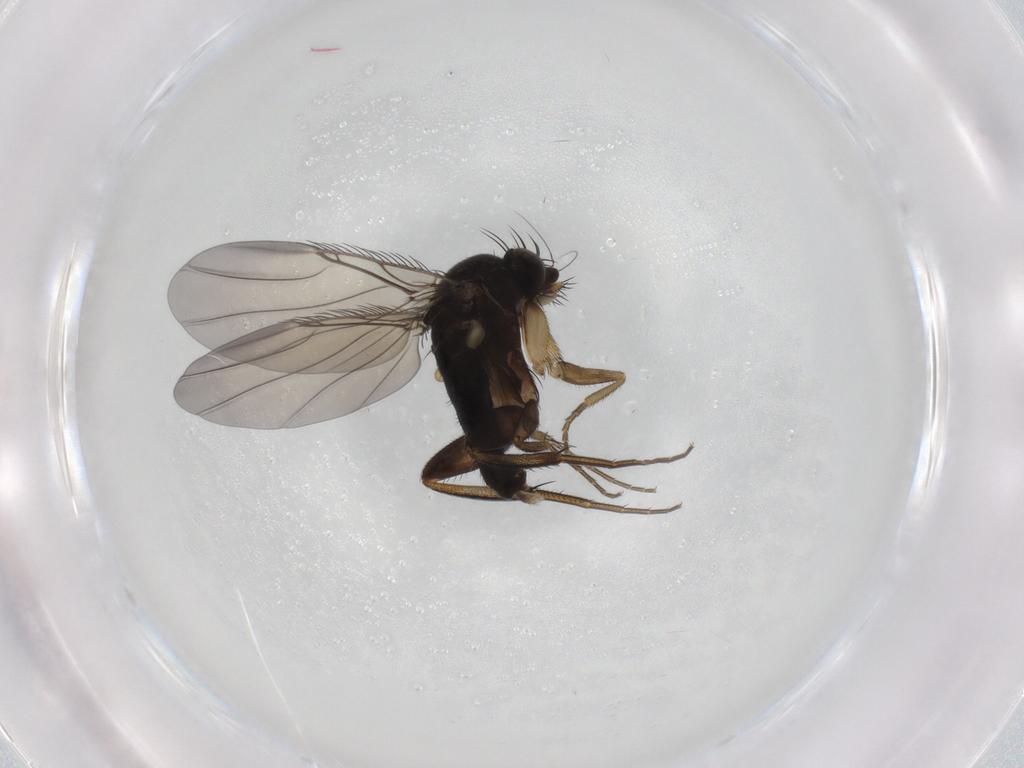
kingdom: Animalia
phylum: Arthropoda
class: Insecta
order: Diptera
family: Phoridae
